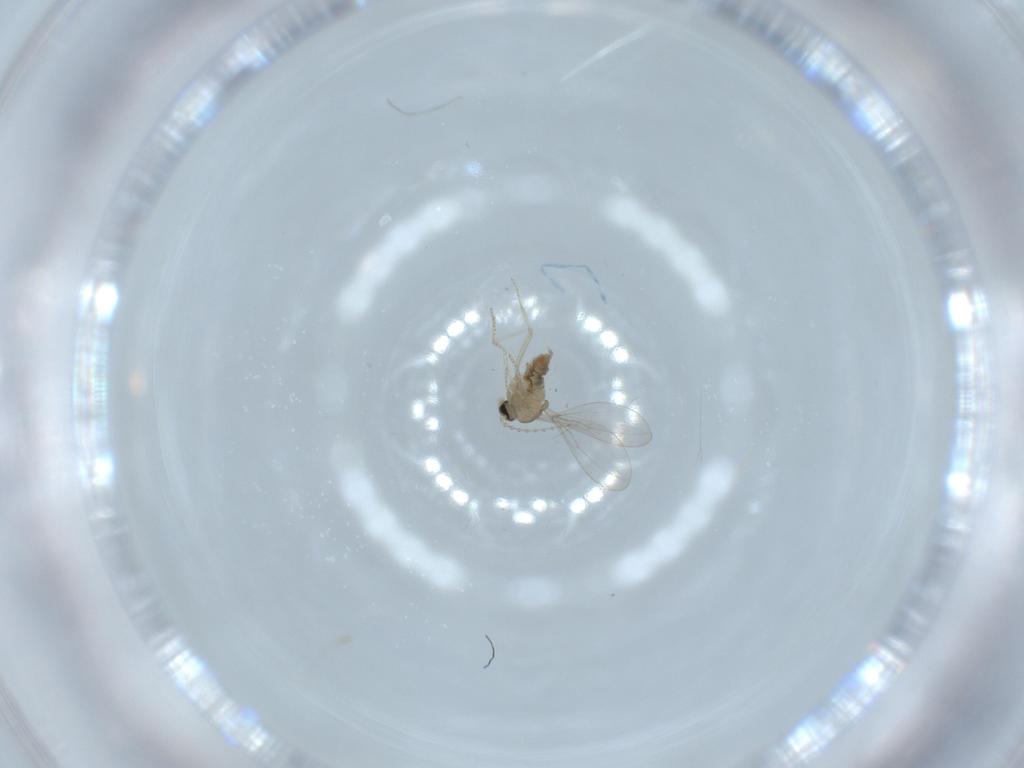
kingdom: Animalia
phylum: Arthropoda
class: Insecta
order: Diptera
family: Cecidomyiidae
